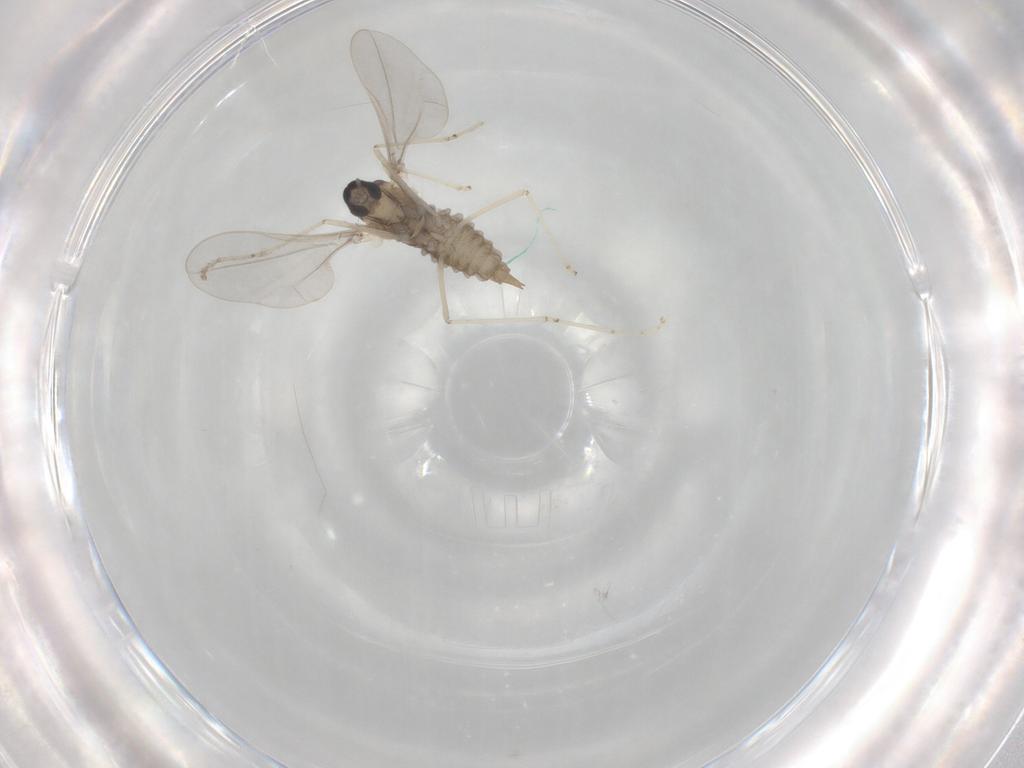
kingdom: Animalia
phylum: Arthropoda
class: Insecta
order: Diptera
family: Cecidomyiidae
